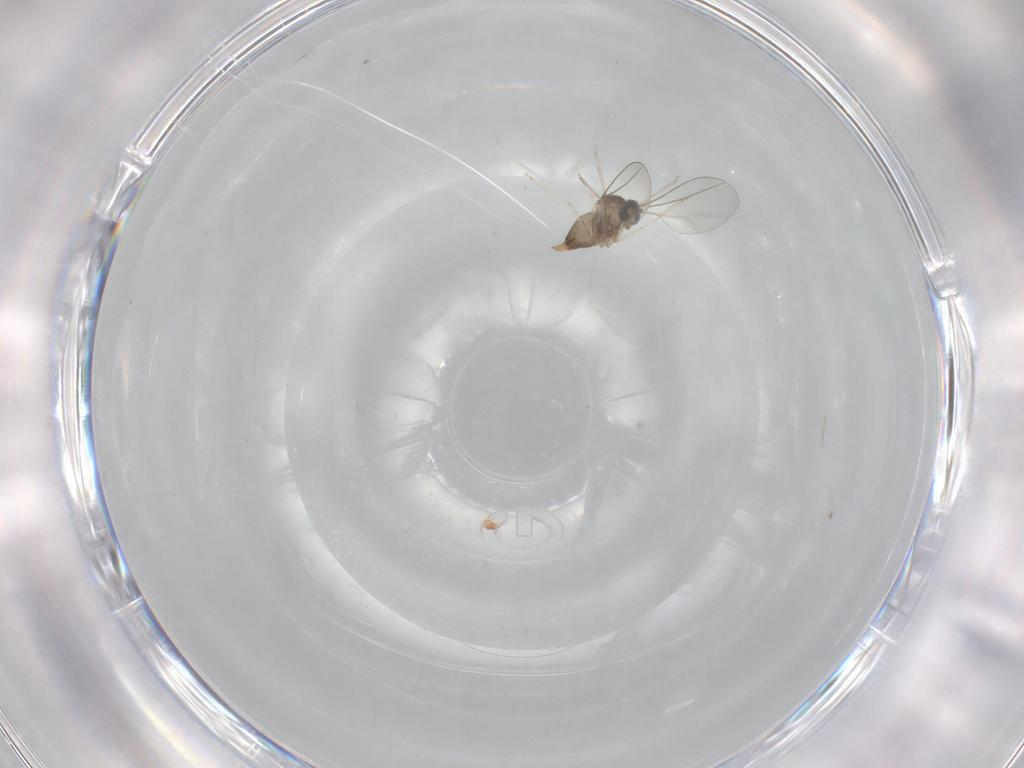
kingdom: Animalia
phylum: Arthropoda
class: Insecta
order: Diptera
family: Cecidomyiidae
